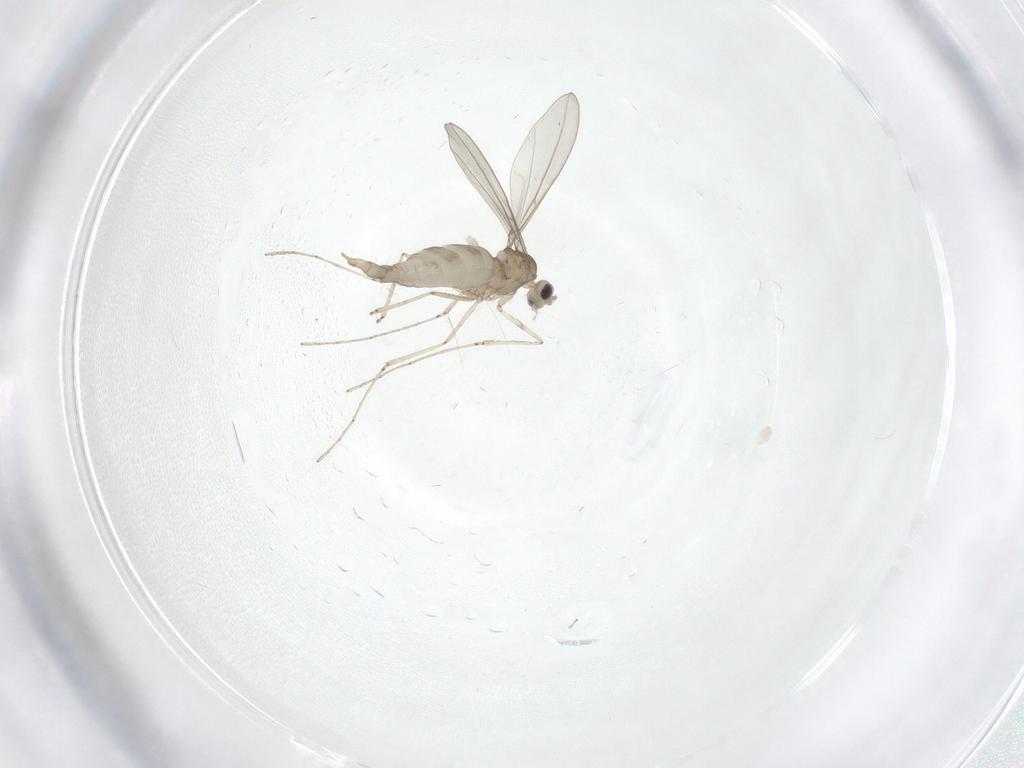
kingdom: Animalia
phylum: Arthropoda
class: Insecta
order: Diptera
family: Cecidomyiidae
